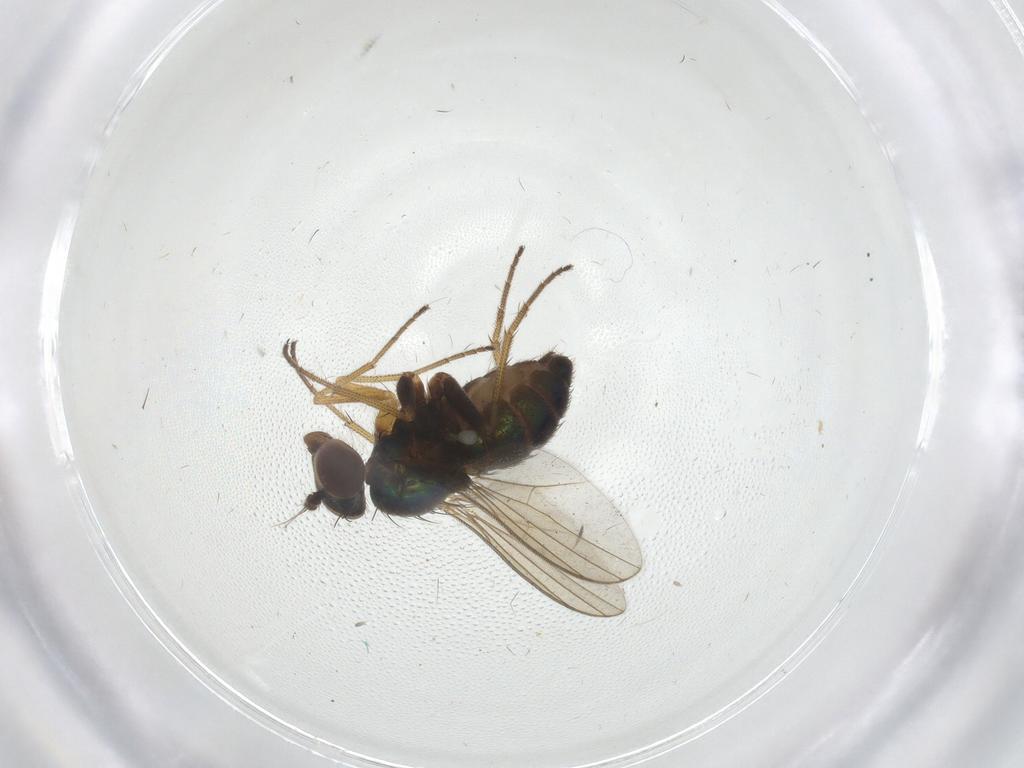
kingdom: Animalia
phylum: Arthropoda
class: Insecta
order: Diptera
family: Dolichopodidae
